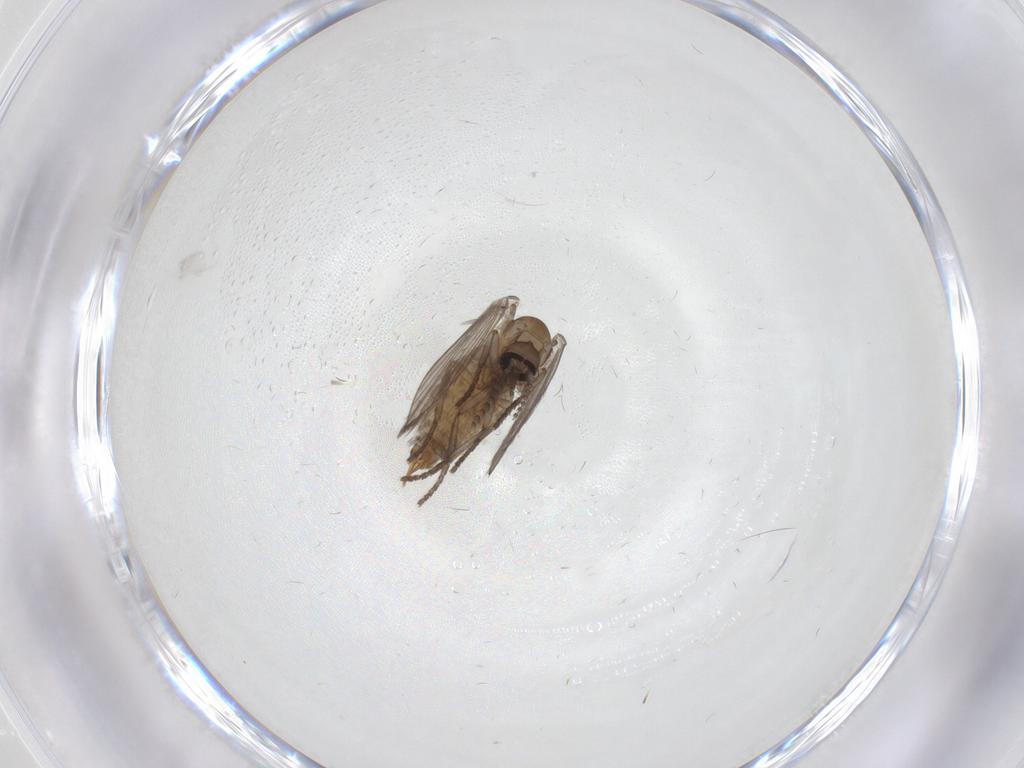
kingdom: Animalia
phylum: Arthropoda
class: Insecta
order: Diptera
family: Psychodidae
